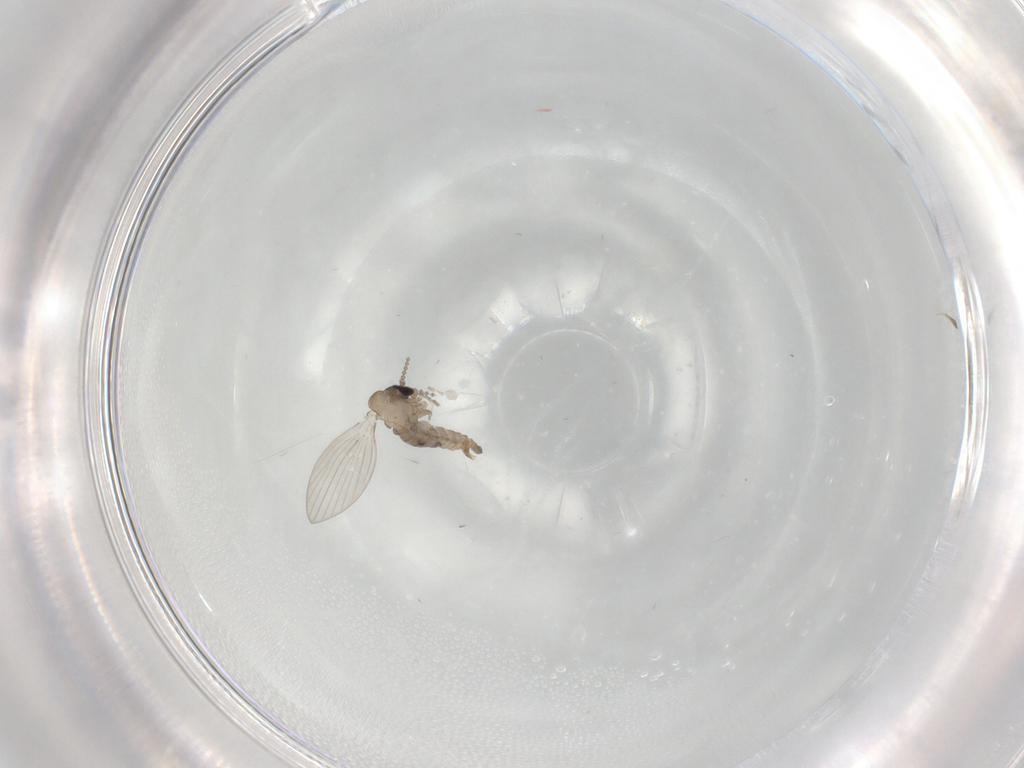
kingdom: Animalia
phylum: Arthropoda
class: Insecta
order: Diptera
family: Psychodidae
